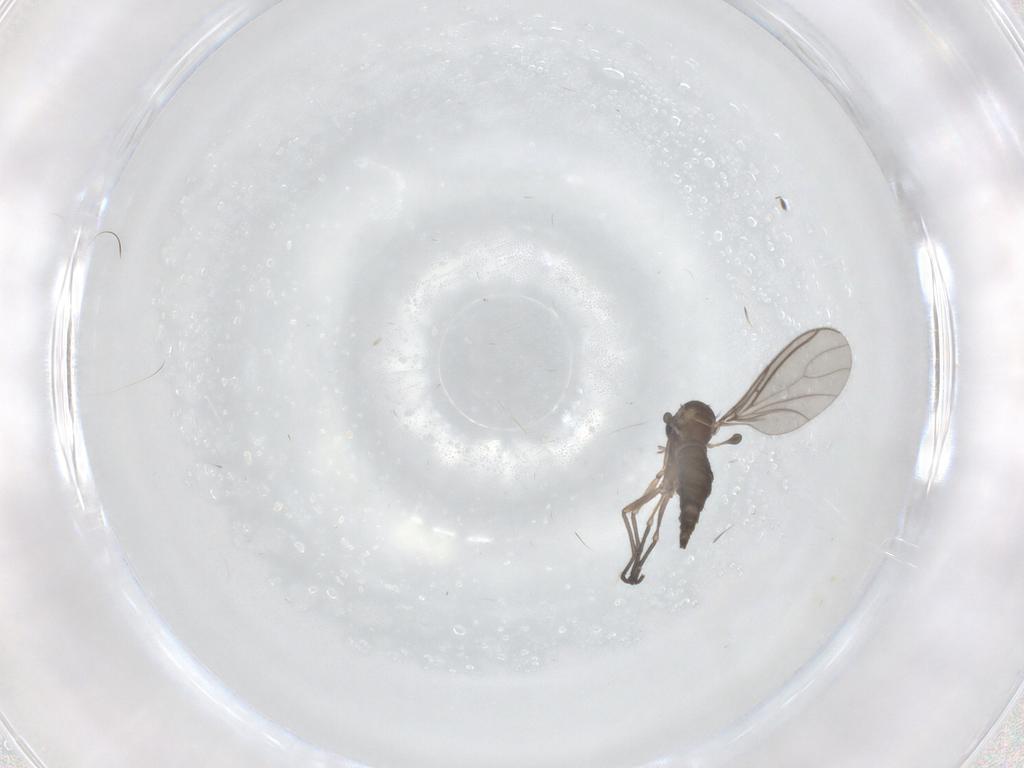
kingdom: Animalia
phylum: Arthropoda
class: Insecta
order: Diptera
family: Sciaridae
